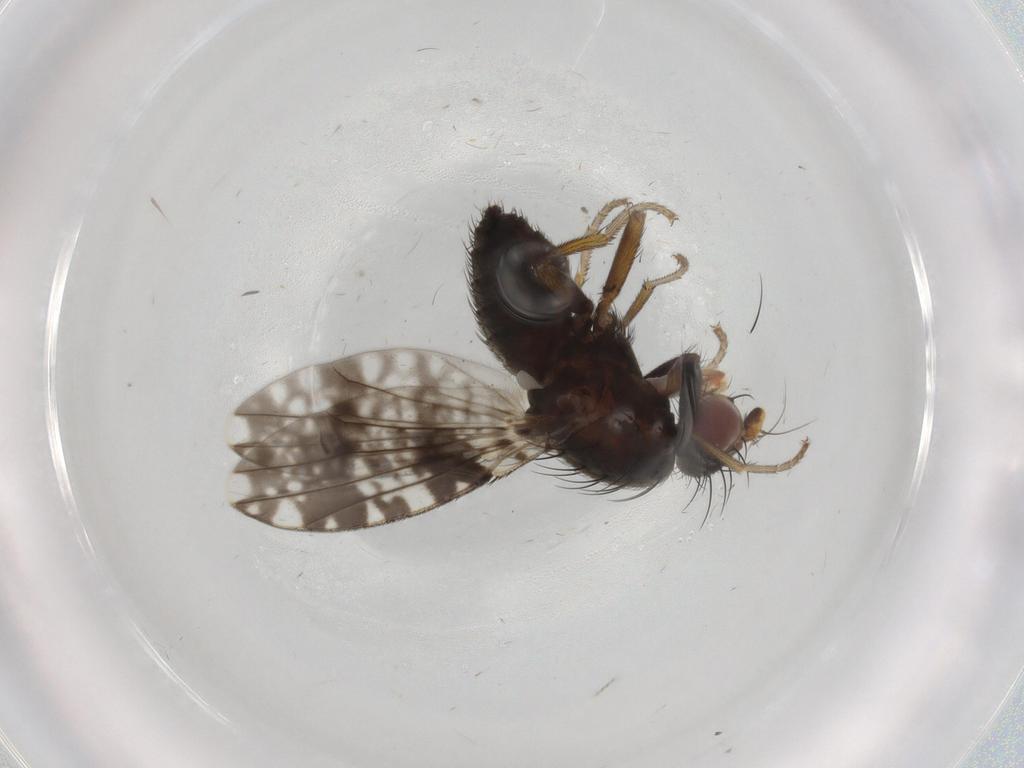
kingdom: Animalia
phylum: Arthropoda
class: Insecta
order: Diptera
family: Tephritidae
